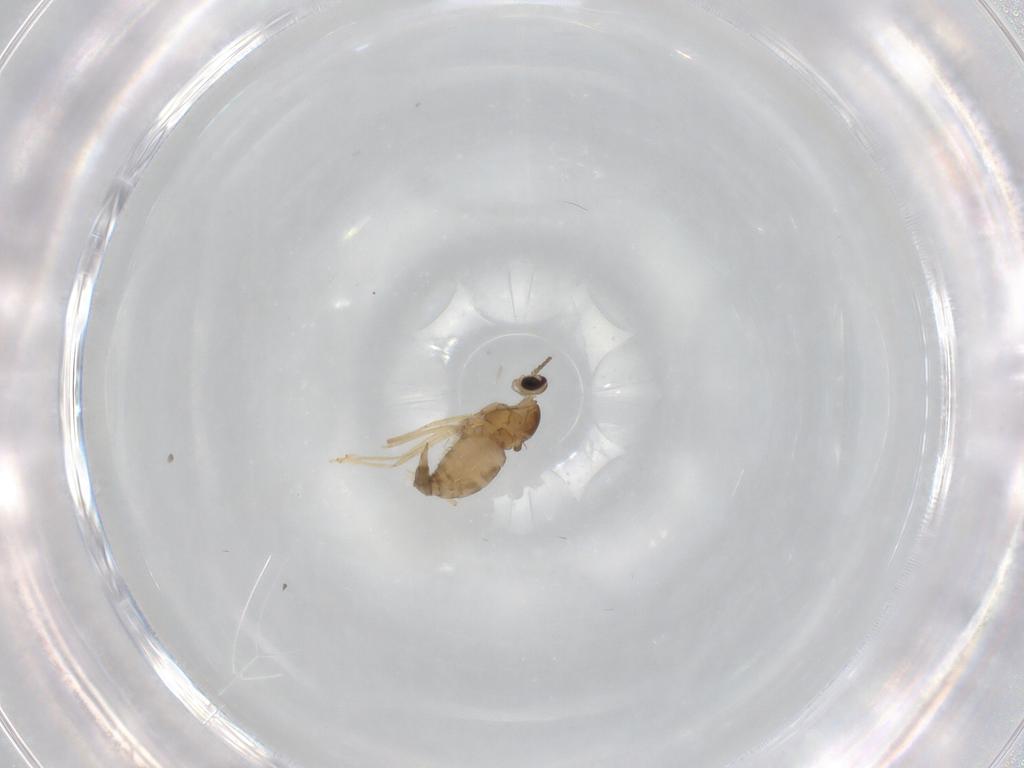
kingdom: Animalia
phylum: Arthropoda
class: Insecta
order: Diptera
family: Cecidomyiidae
